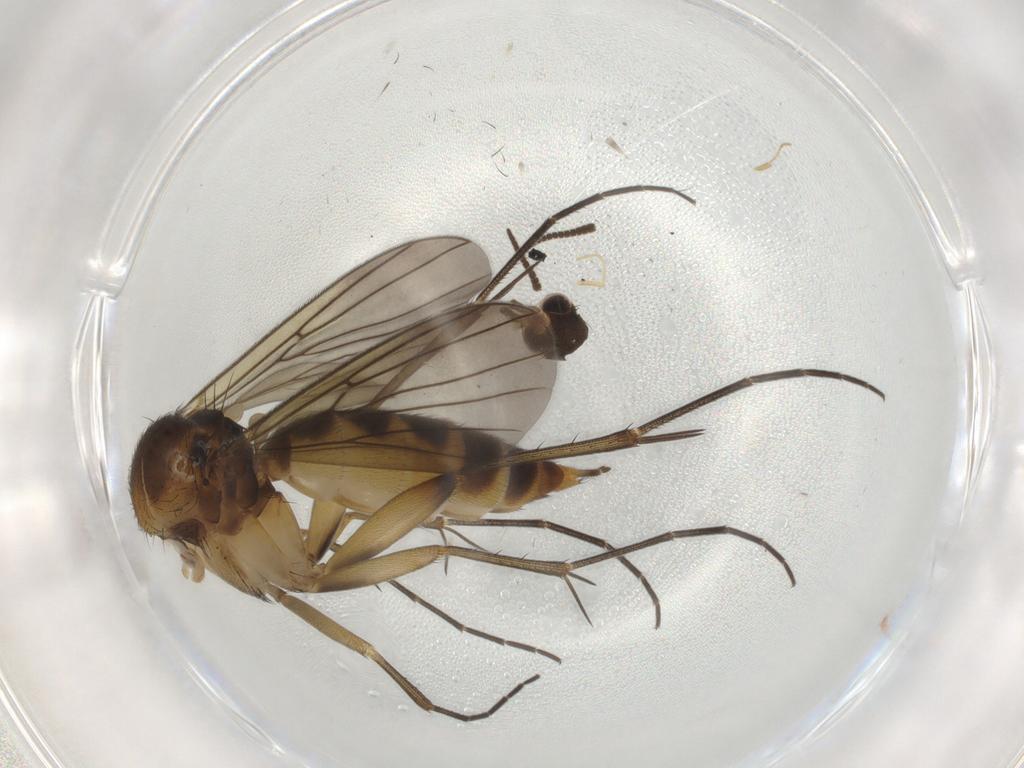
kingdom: Animalia
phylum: Arthropoda
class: Insecta
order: Diptera
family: Mycetophilidae
